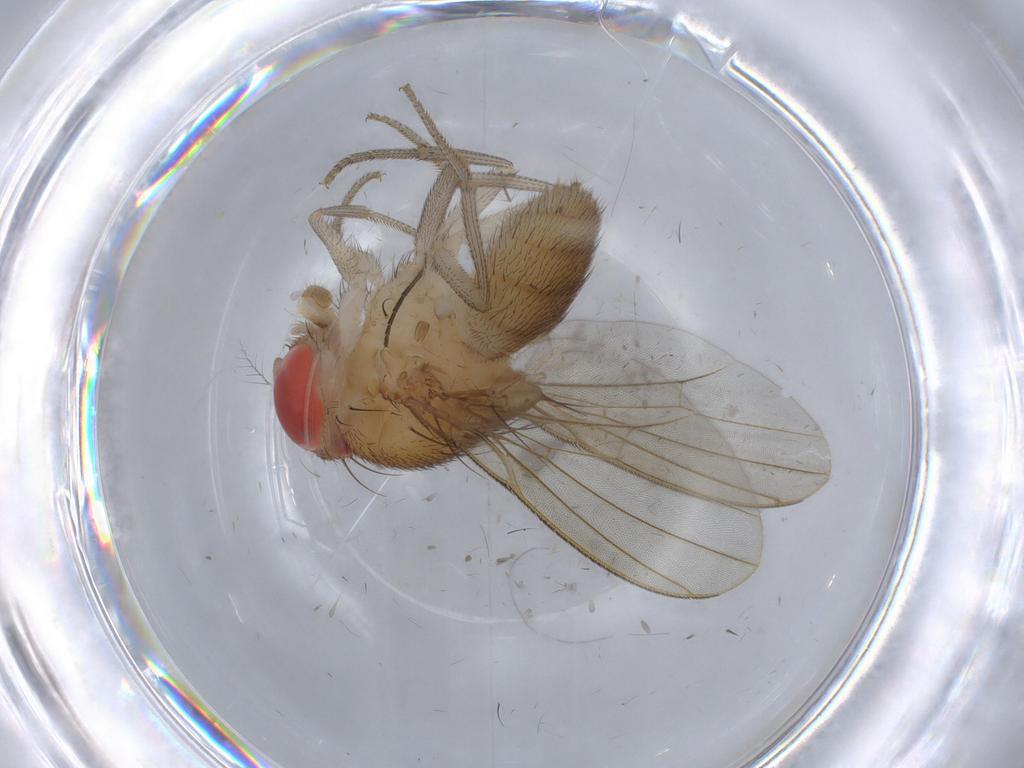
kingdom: Animalia
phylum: Arthropoda
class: Insecta
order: Diptera
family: Drosophilidae
